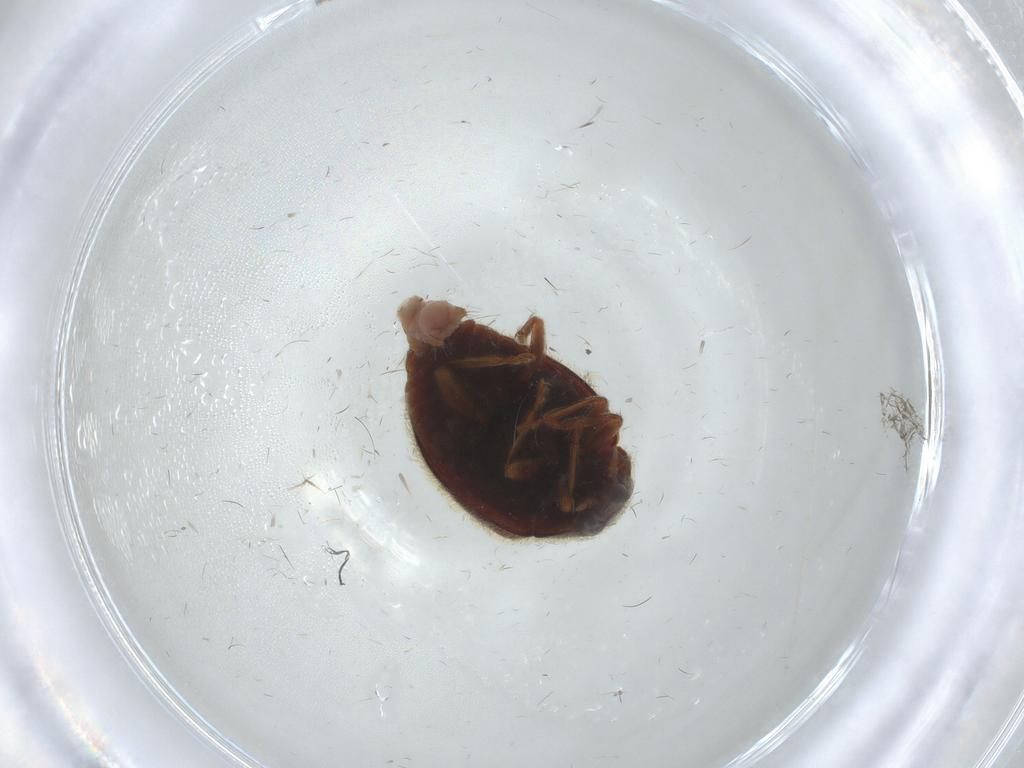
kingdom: Animalia
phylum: Arthropoda
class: Insecta
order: Coleoptera
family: Coccinellidae
